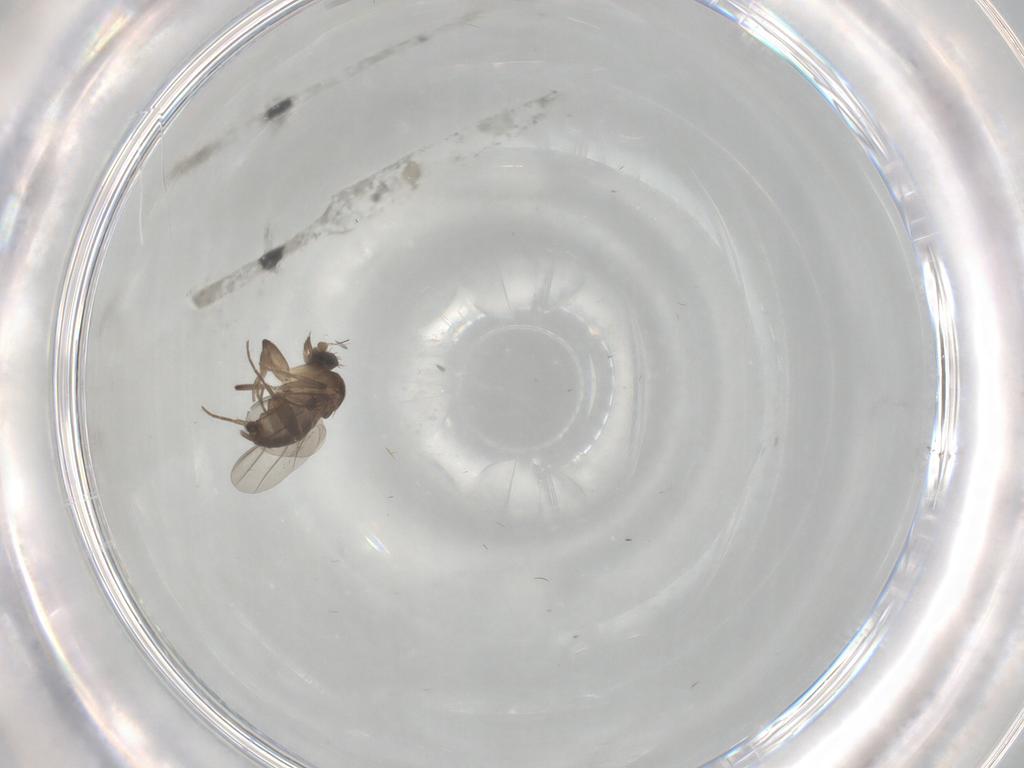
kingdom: Animalia
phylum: Arthropoda
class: Insecta
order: Diptera
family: Phoridae
